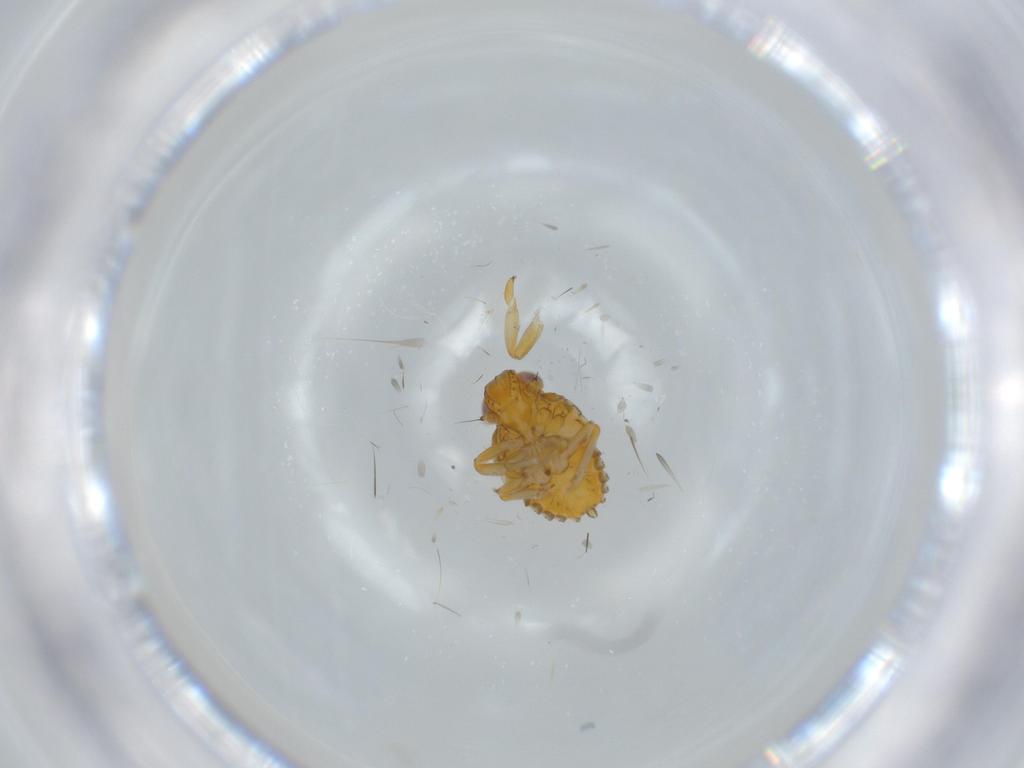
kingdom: Animalia
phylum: Arthropoda
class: Insecta
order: Hemiptera
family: Issidae
